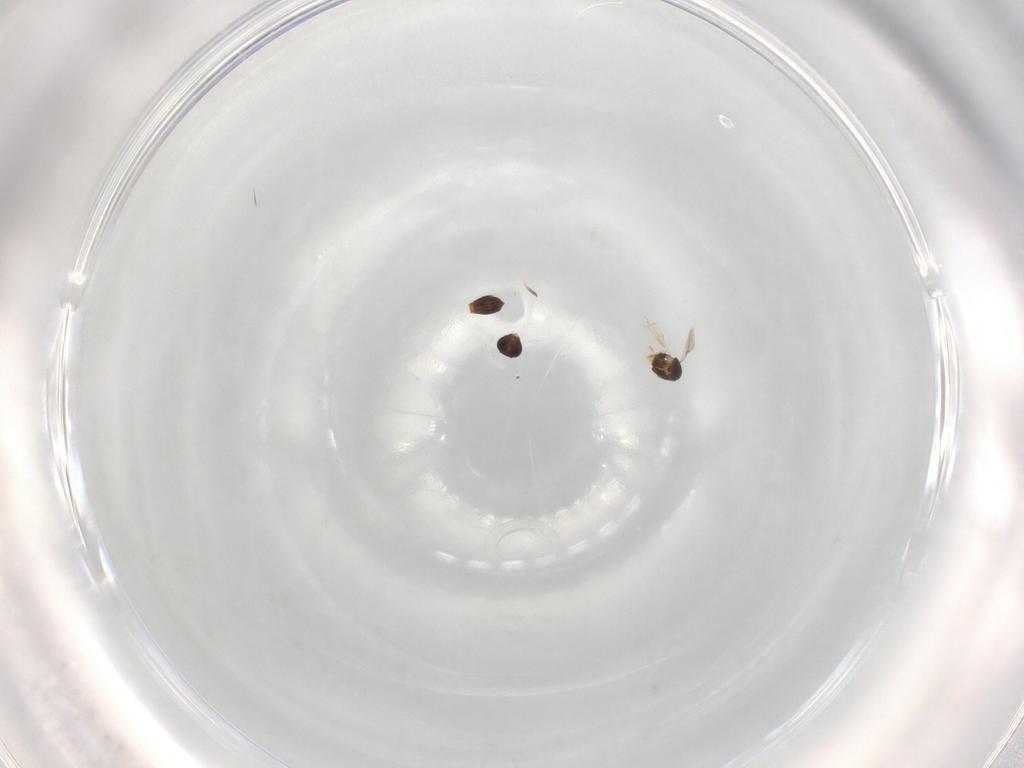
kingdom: Animalia
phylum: Arthropoda
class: Insecta
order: Hymenoptera
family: Scelionidae
